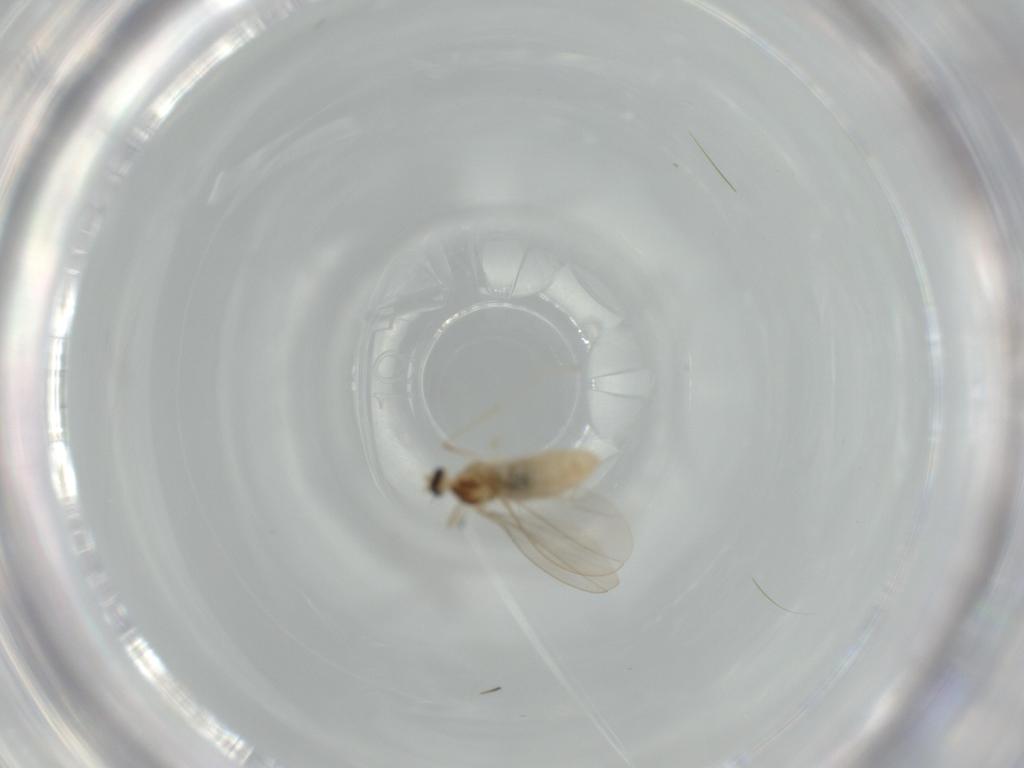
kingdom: Animalia
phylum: Arthropoda
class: Insecta
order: Diptera
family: Cecidomyiidae
